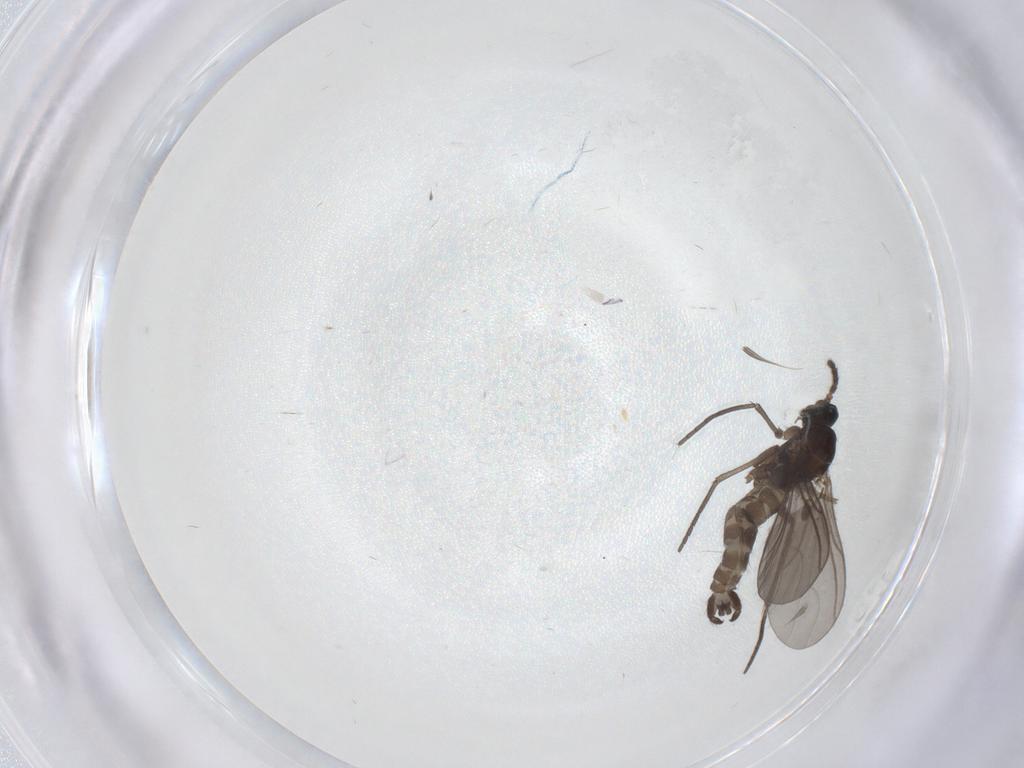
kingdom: Animalia
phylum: Arthropoda
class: Insecta
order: Diptera
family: Sciaridae
